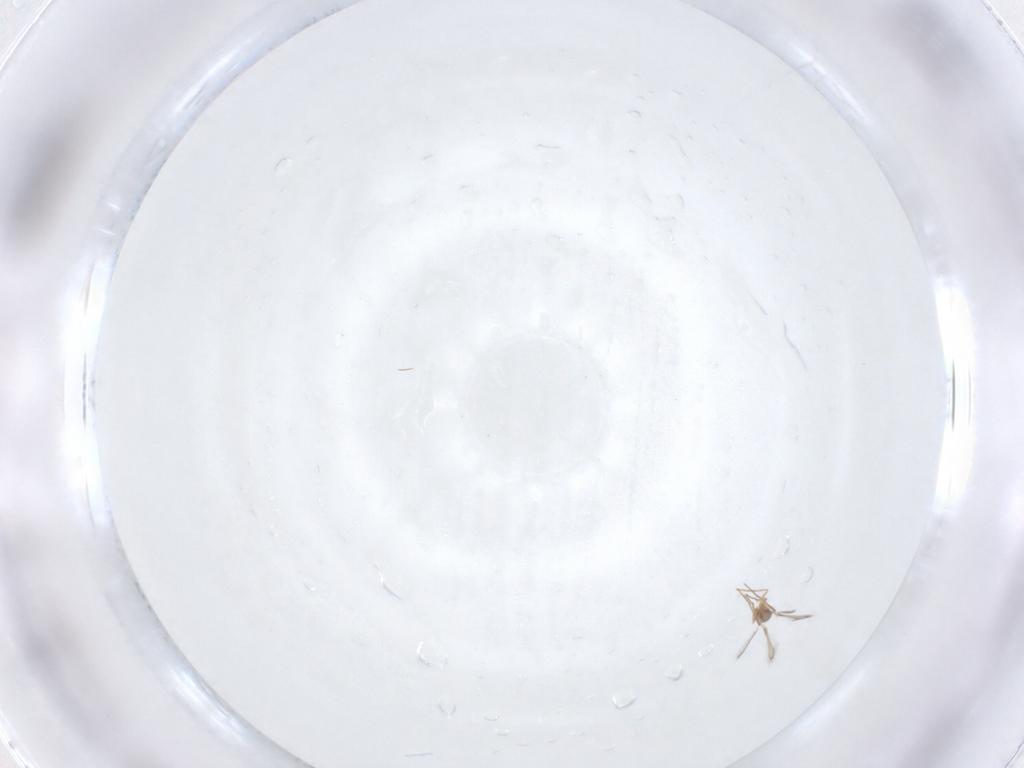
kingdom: Animalia
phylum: Arthropoda
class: Insecta
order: Hymenoptera
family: Mymaridae
